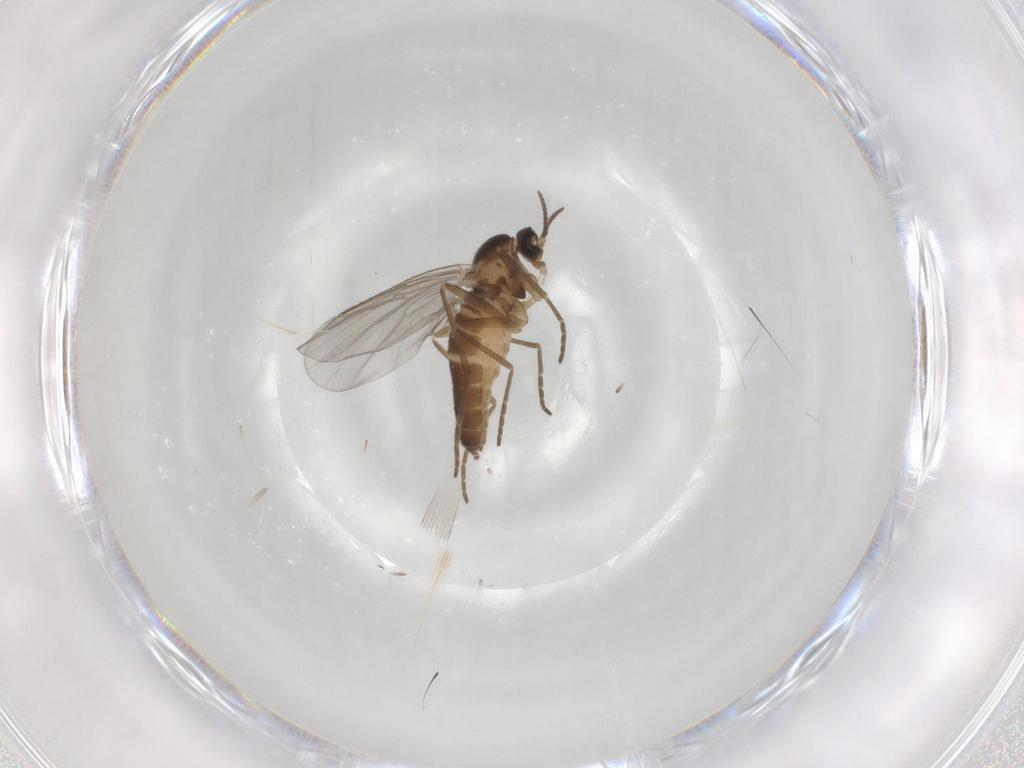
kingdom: Animalia
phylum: Arthropoda
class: Insecta
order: Diptera
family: Cecidomyiidae
